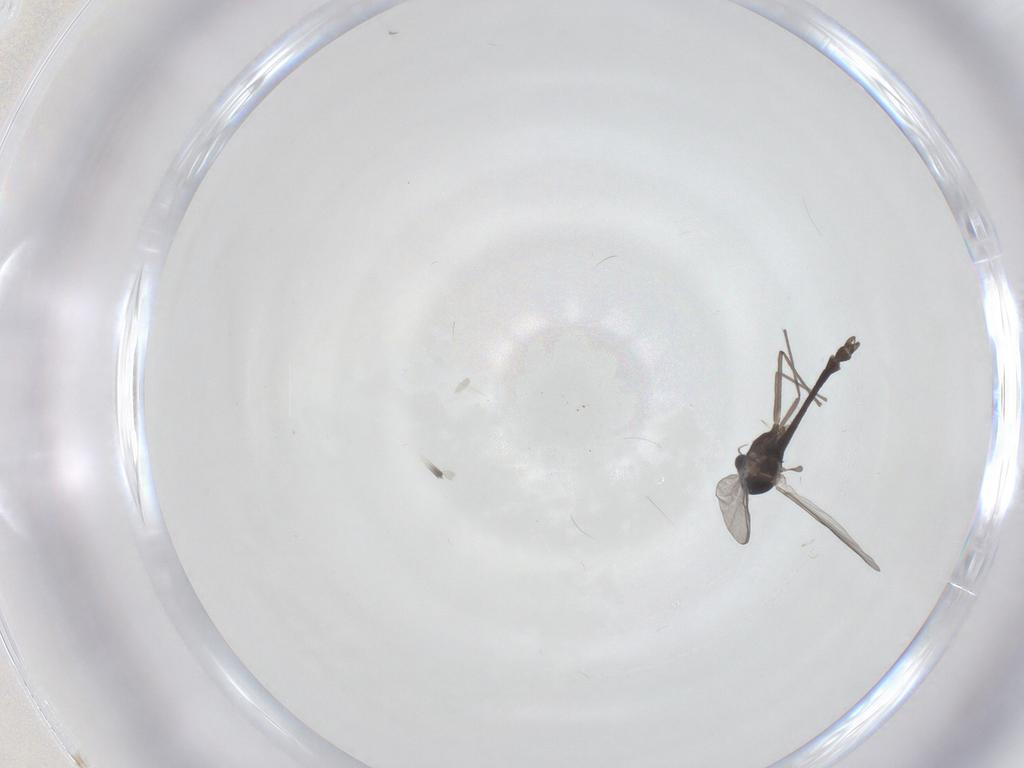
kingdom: Animalia
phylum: Arthropoda
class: Insecta
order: Diptera
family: Chironomidae
